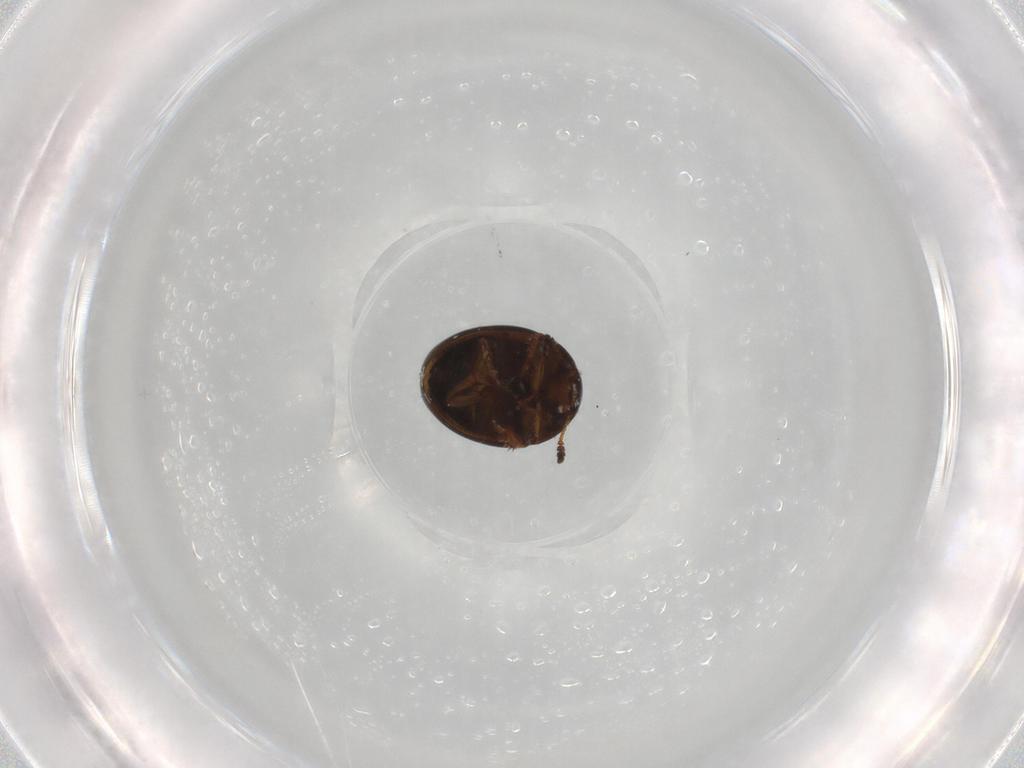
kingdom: Animalia
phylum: Arthropoda
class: Insecta
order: Coleoptera
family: Leiodidae
